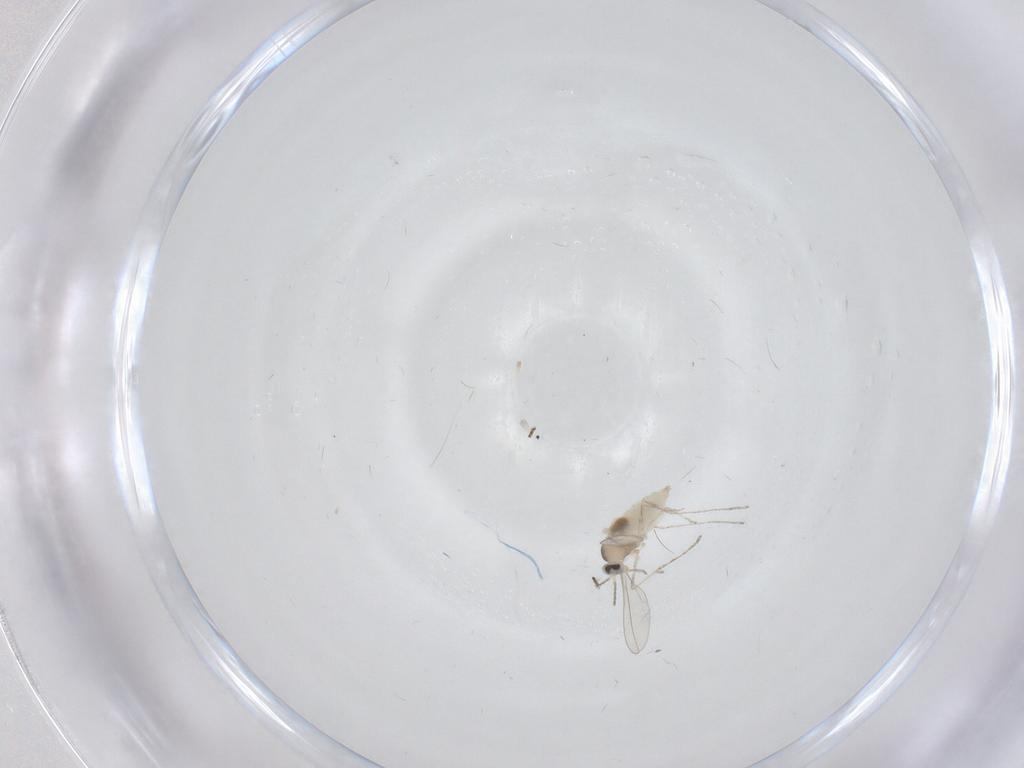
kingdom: Animalia
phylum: Arthropoda
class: Insecta
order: Diptera
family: Cecidomyiidae
